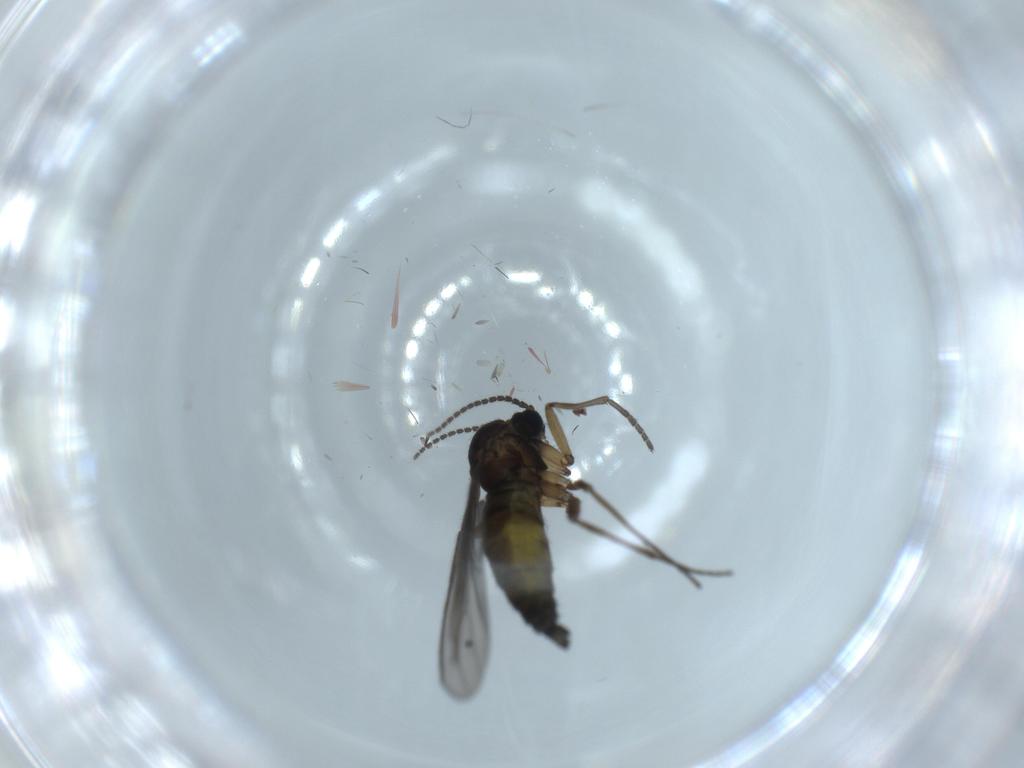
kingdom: Animalia
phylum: Arthropoda
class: Insecta
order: Diptera
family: Sciaridae
